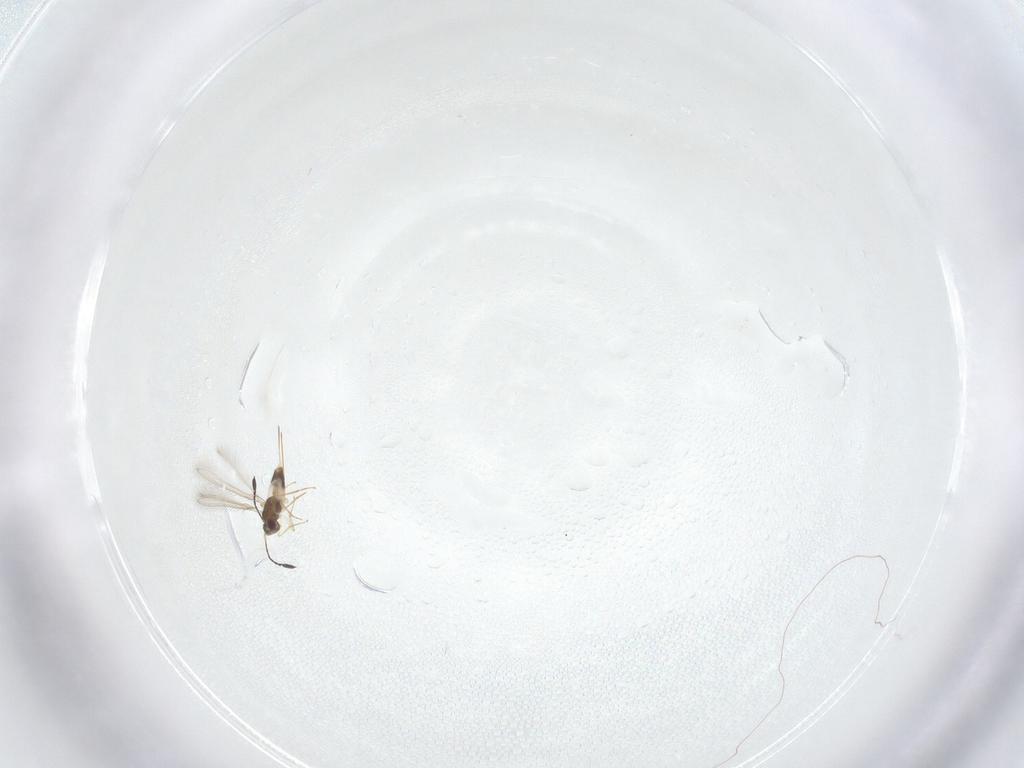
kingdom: Animalia
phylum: Arthropoda
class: Insecta
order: Hymenoptera
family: Mymaridae
